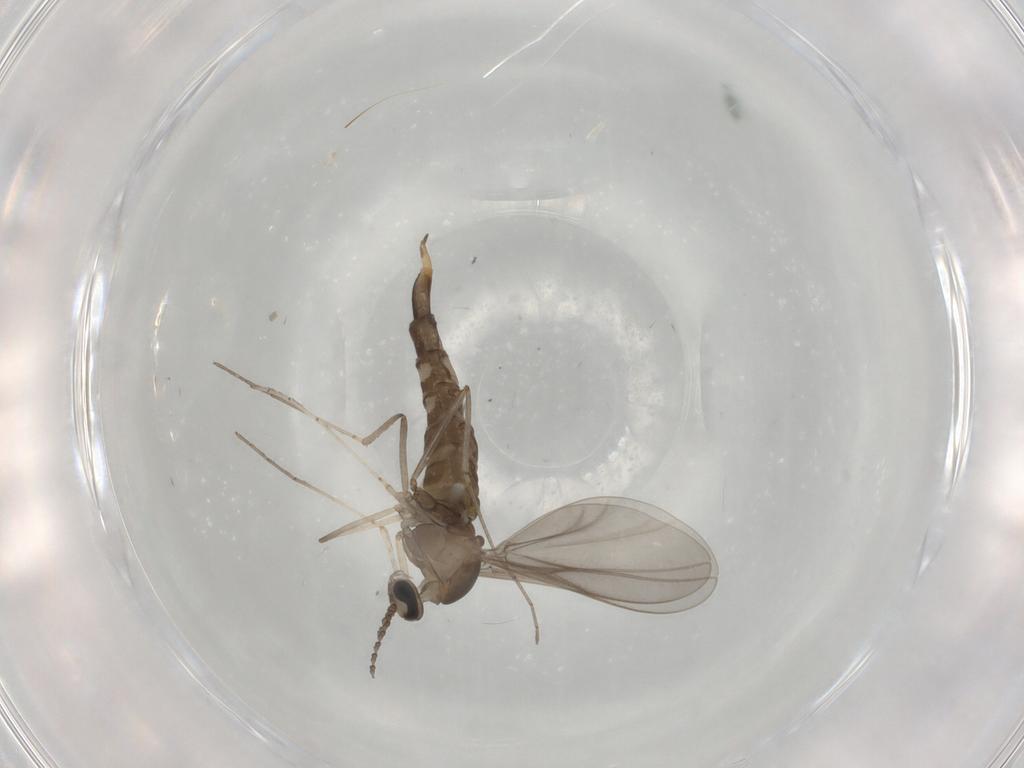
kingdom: Animalia
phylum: Arthropoda
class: Insecta
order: Diptera
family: Cecidomyiidae
